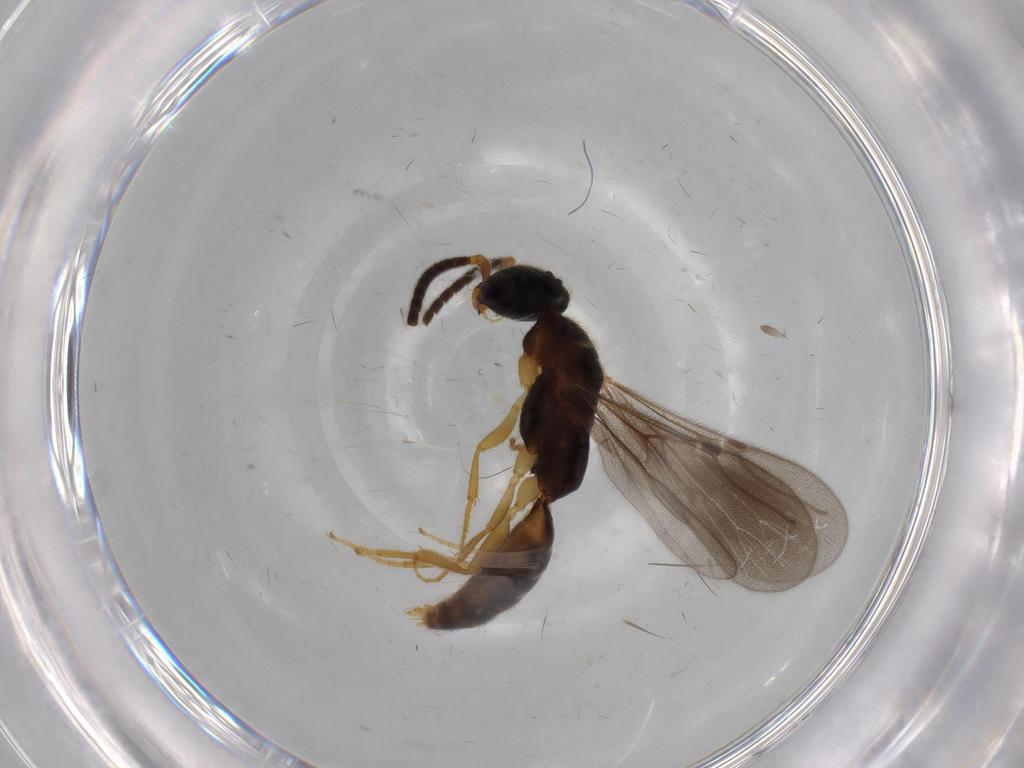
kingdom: Animalia
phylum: Arthropoda
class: Insecta
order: Hymenoptera
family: Bethylidae
